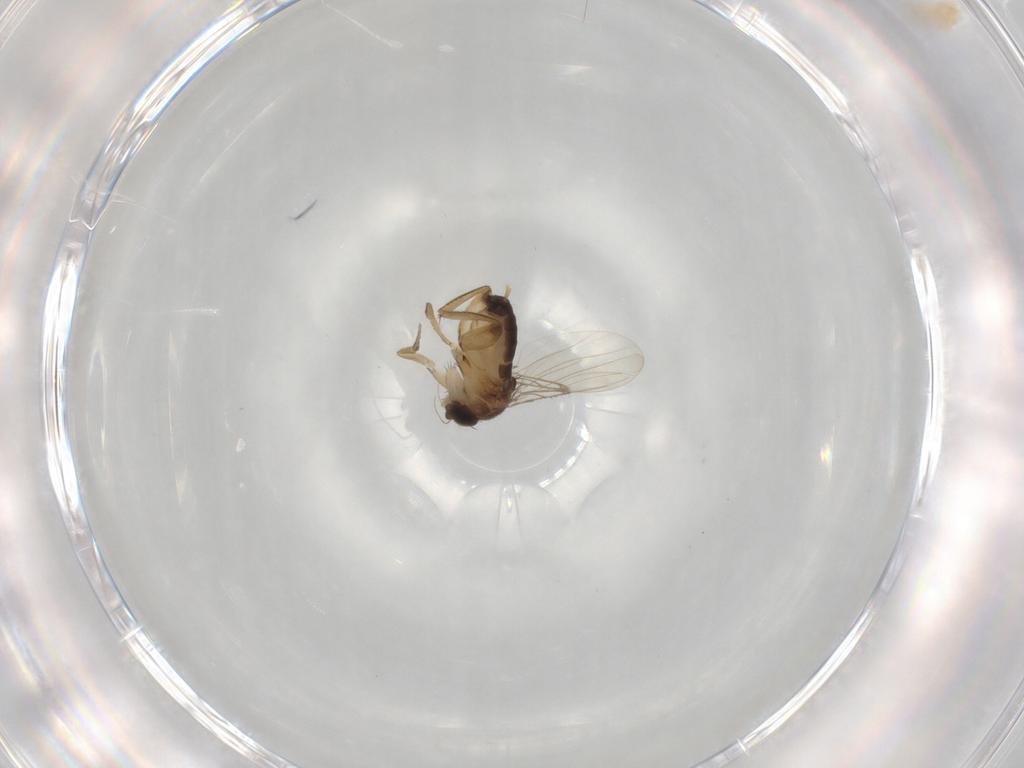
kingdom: Animalia
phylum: Arthropoda
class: Insecta
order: Diptera
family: Phoridae
